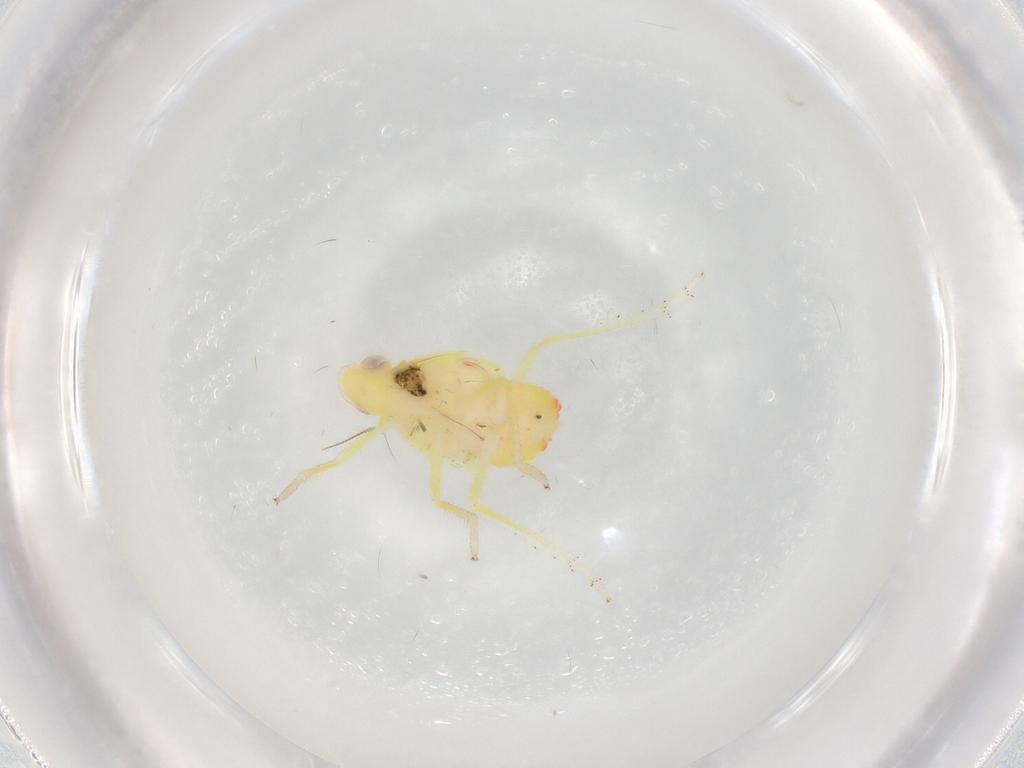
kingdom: Animalia
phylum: Arthropoda
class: Insecta
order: Hemiptera
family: Tropiduchidae
